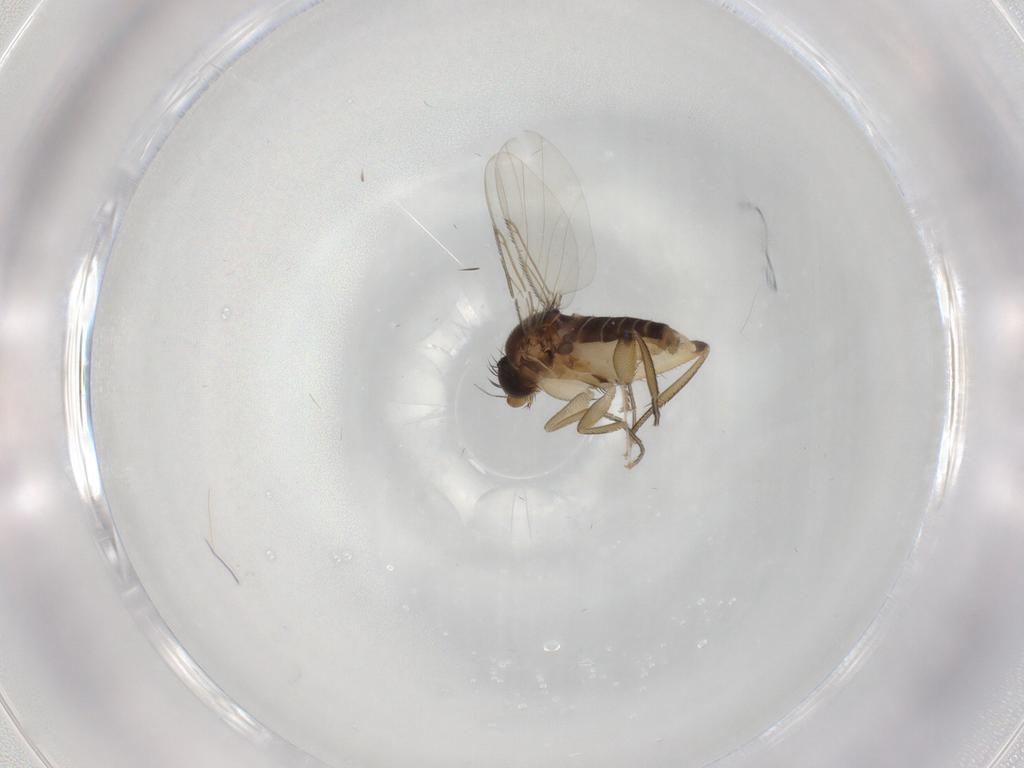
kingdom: Animalia
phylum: Arthropoda
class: Insecta
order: Diptera
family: Phoridae
